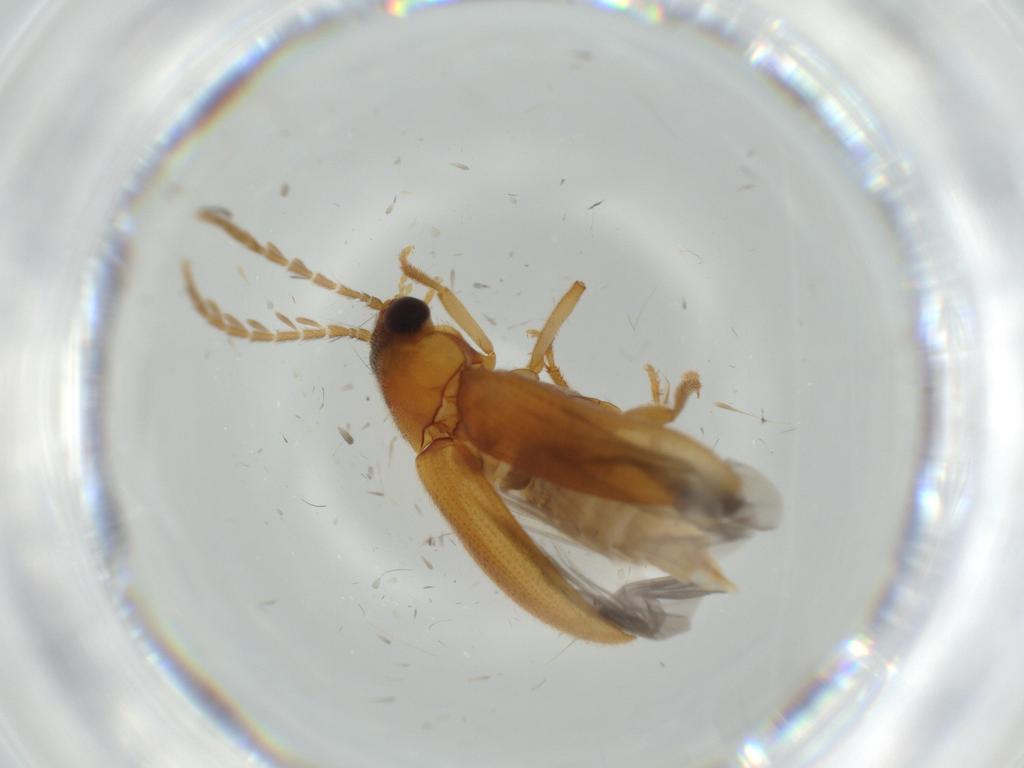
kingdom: Animalia
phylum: Arthropoda
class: Insecta
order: Coleoptera
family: Ptilodactylidae
